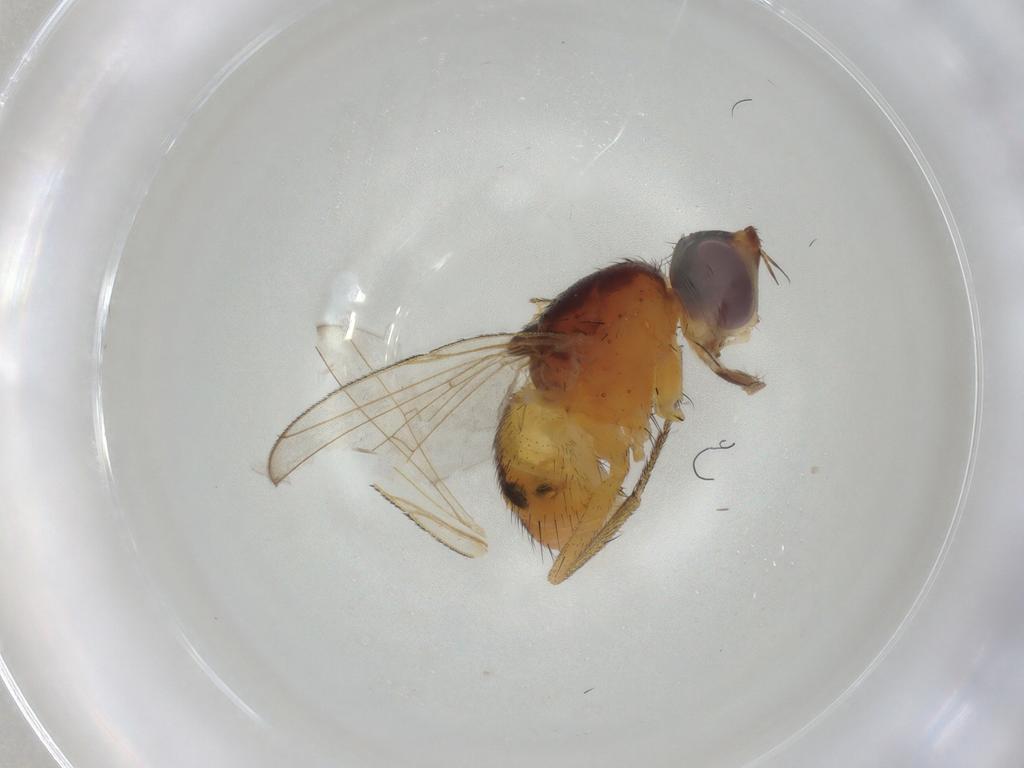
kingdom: Animalia
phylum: Arthropoda
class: Insecta
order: Diptera
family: Muscidae
